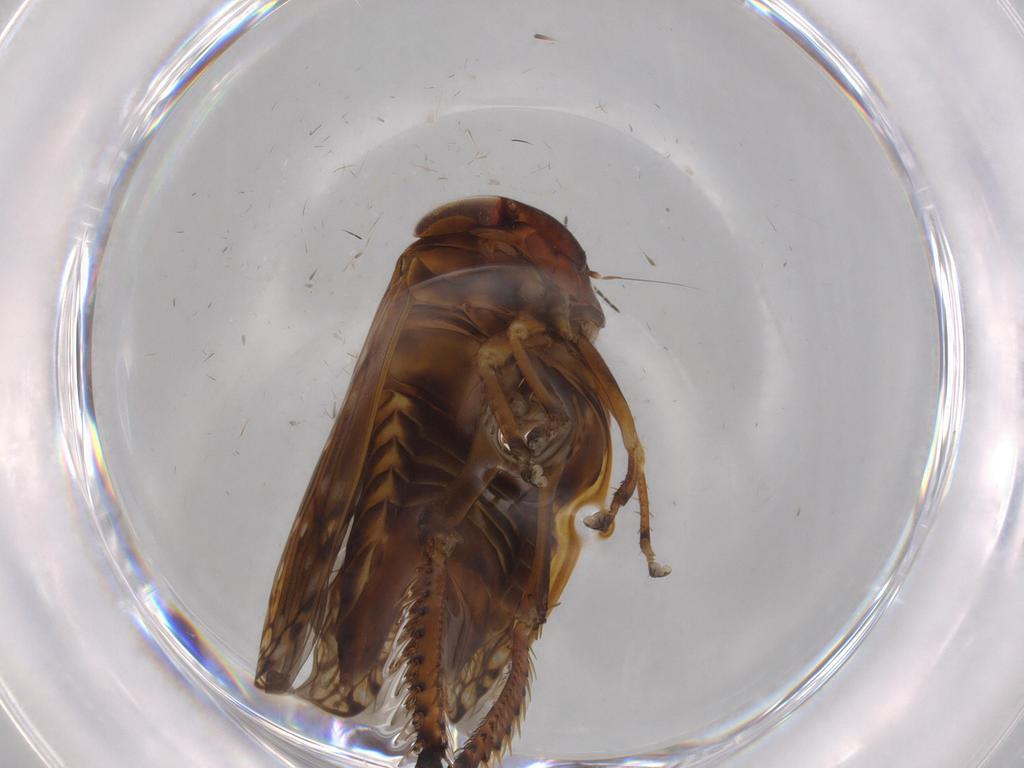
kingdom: Animalia
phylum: Arthropoda
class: Insecta
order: Hemiptera
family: Cicadellidae
